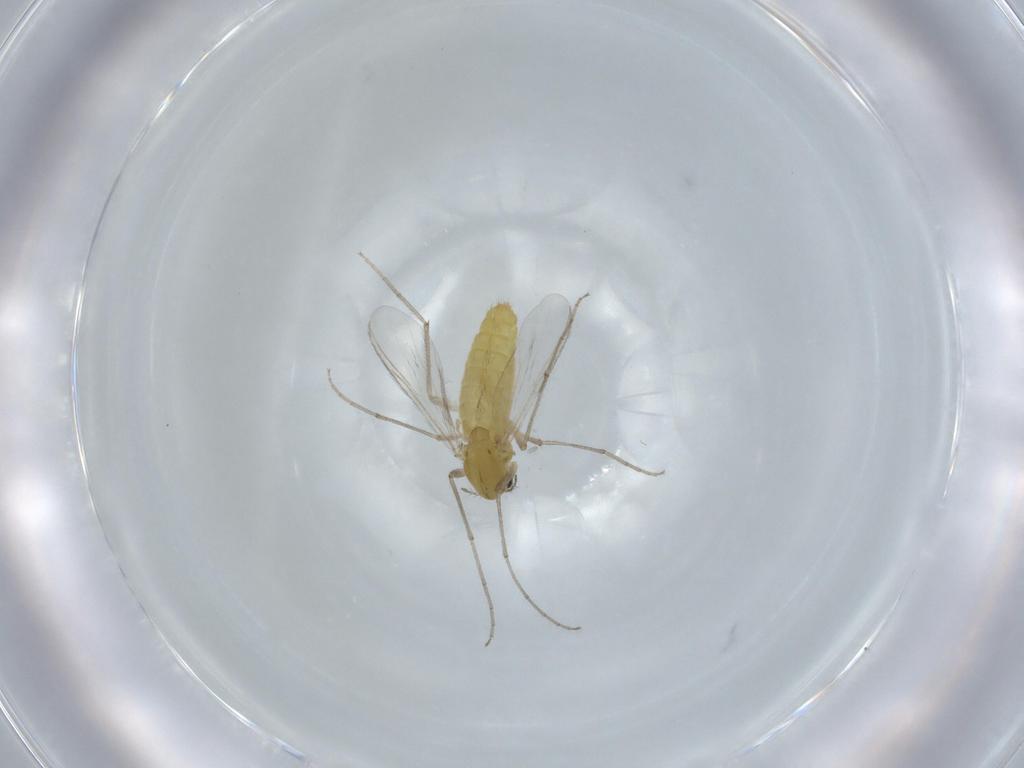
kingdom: Animalia
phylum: Arthropoda
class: Insecta
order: Diptera
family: Sciaridae
